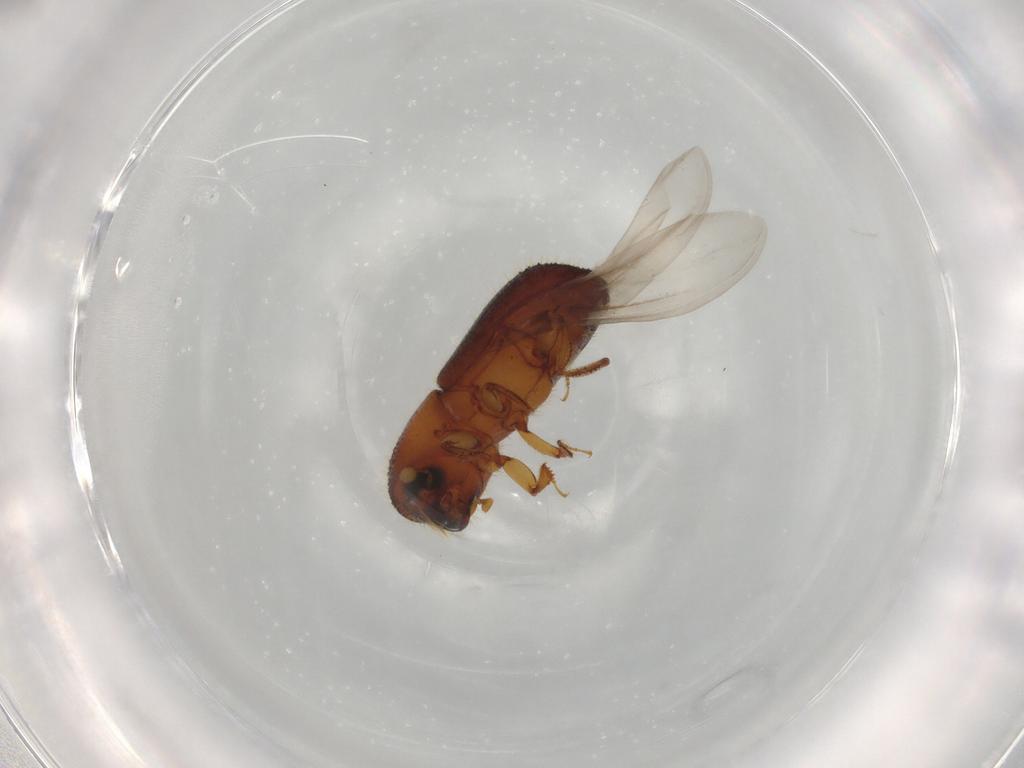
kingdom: Animalia
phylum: Arthropoda
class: Insecta
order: Coleoptera
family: Curculionidae
